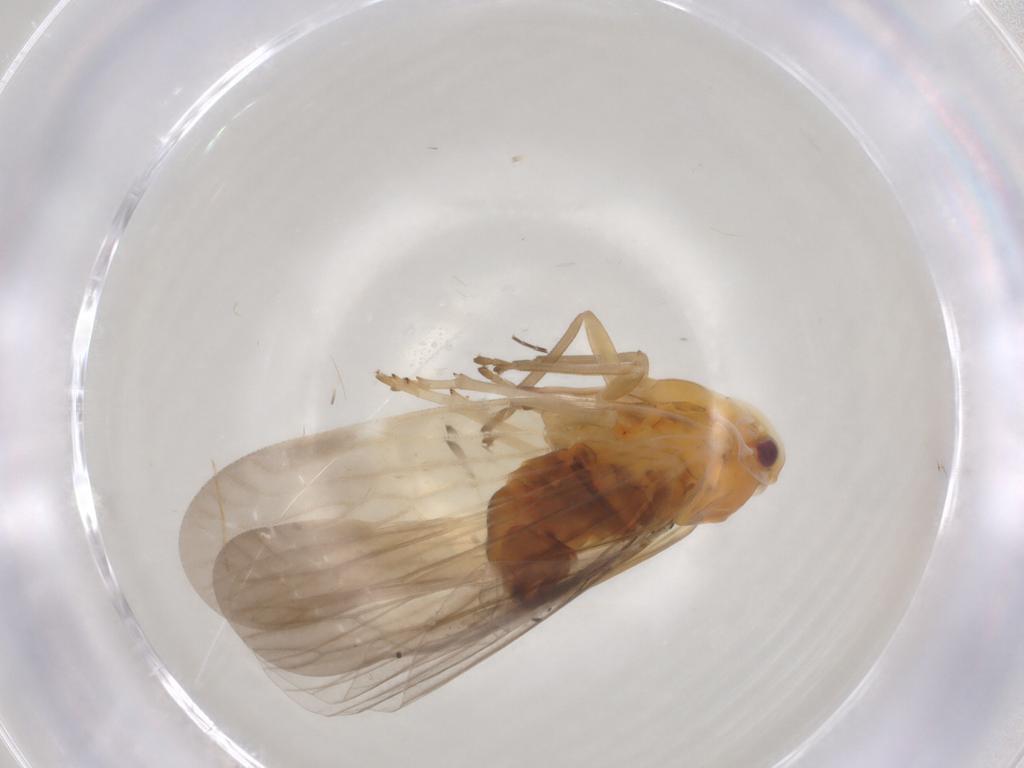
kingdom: Animalia
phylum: Arthropoda
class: Insecta
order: Hemiptera
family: Derbidae
